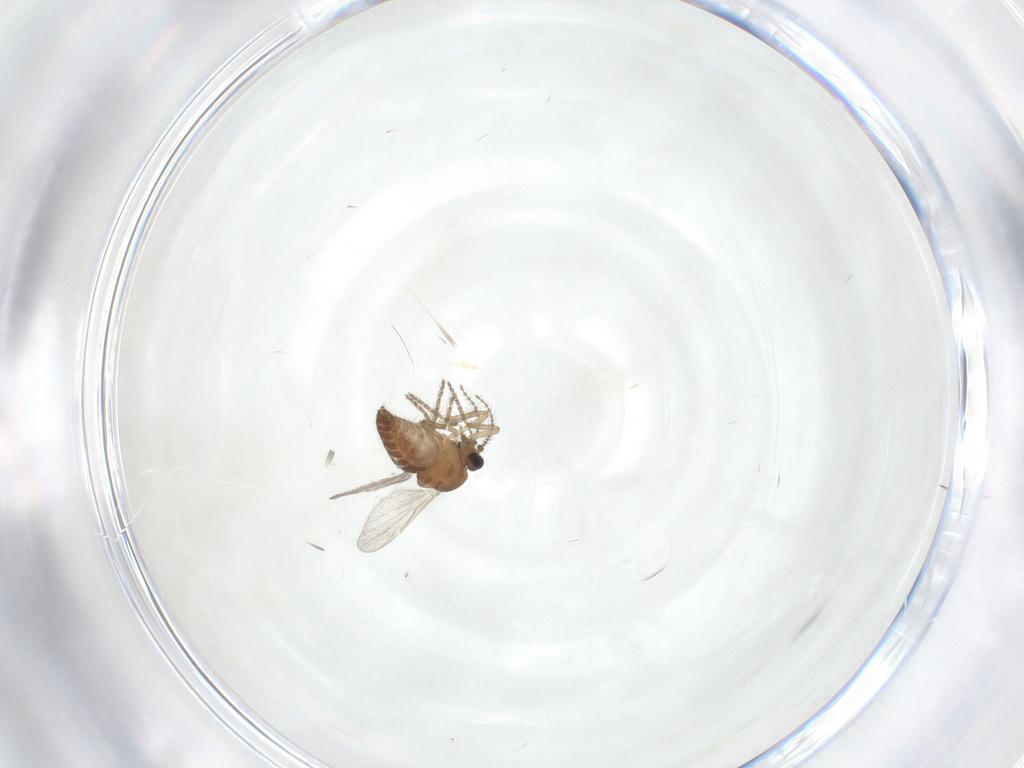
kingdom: Animalia
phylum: Arthropoda
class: Insecta
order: Diptera
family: Ceratopogonidae
